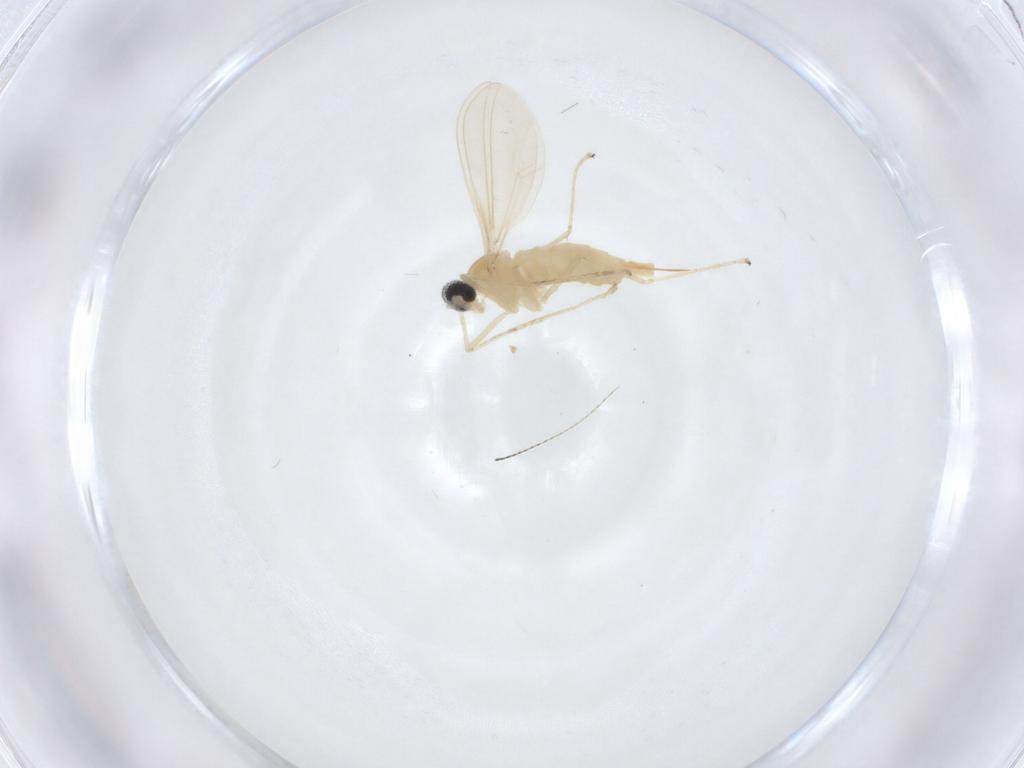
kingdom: Animalia
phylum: Arthropoda
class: Insecta
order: Diptera
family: Cecidomyiidae
